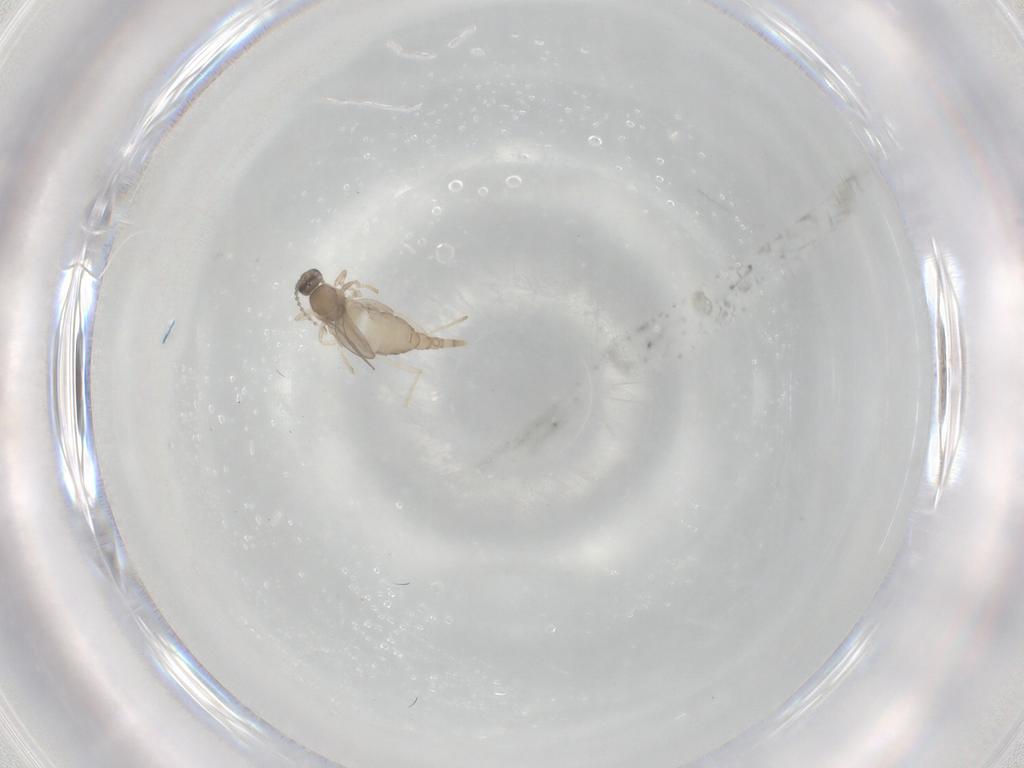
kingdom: Animalia
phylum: Arthropoda
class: Insecta
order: Diptera
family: Cecidomyiidae
